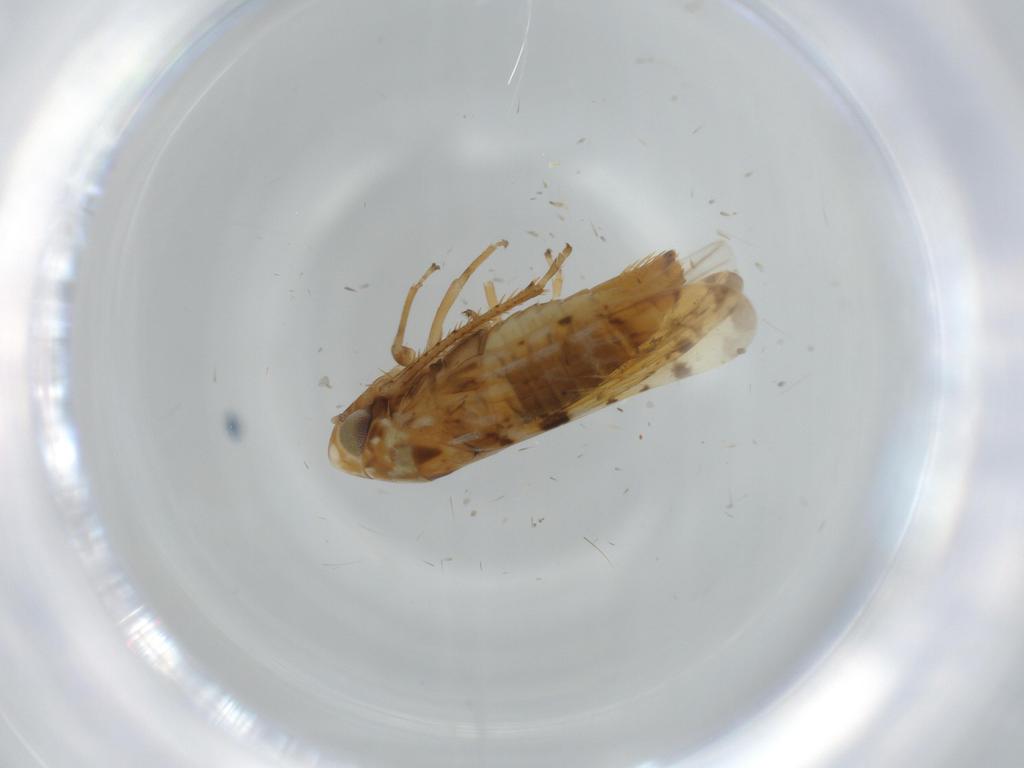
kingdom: Animalia
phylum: Arthropoda
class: Insecta
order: Hemiptera
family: Cicadellidae
